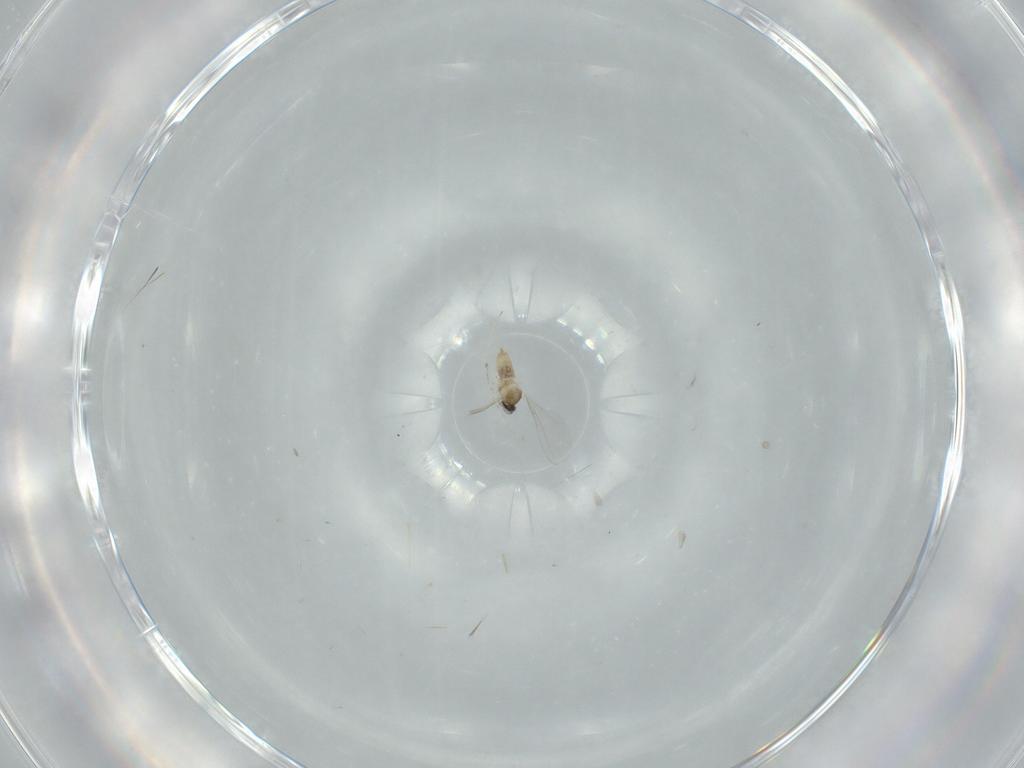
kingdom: Animalia
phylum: Arthropoda
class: Insecta
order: Diptera
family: Cecidomyiidae
